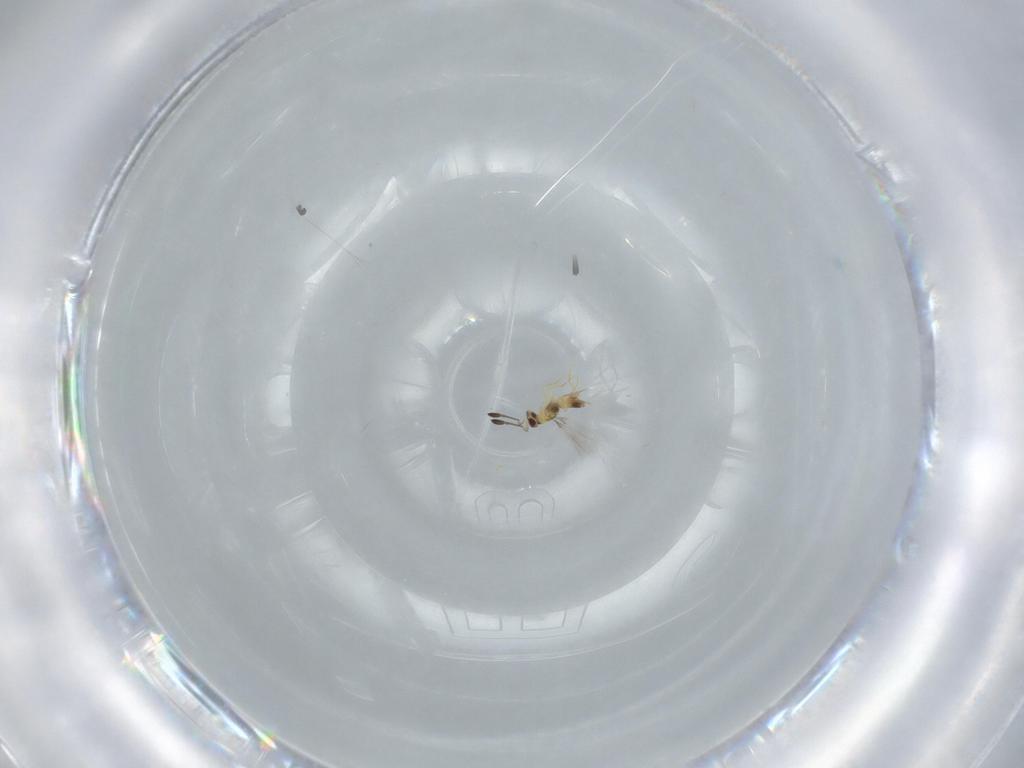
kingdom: Animalia
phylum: Arthropoda
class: Insecta
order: Hymenoptera
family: Mymaridae
